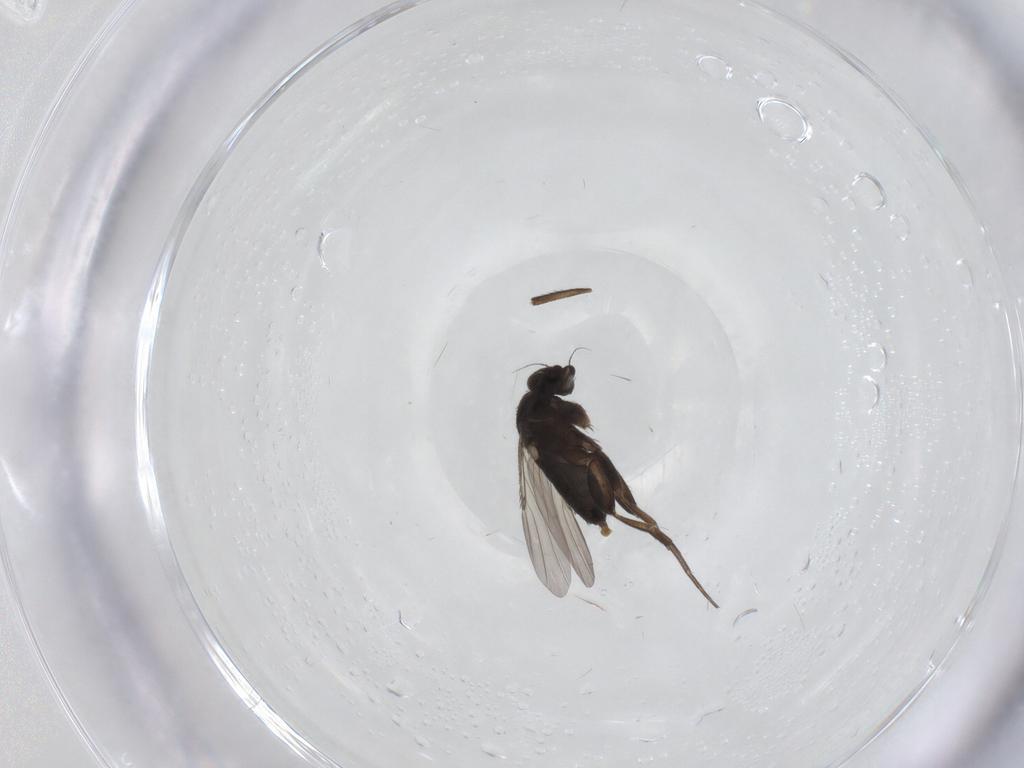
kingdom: Animalia
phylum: Arthropoda
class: Insecta
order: Diptera
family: Phoridae
